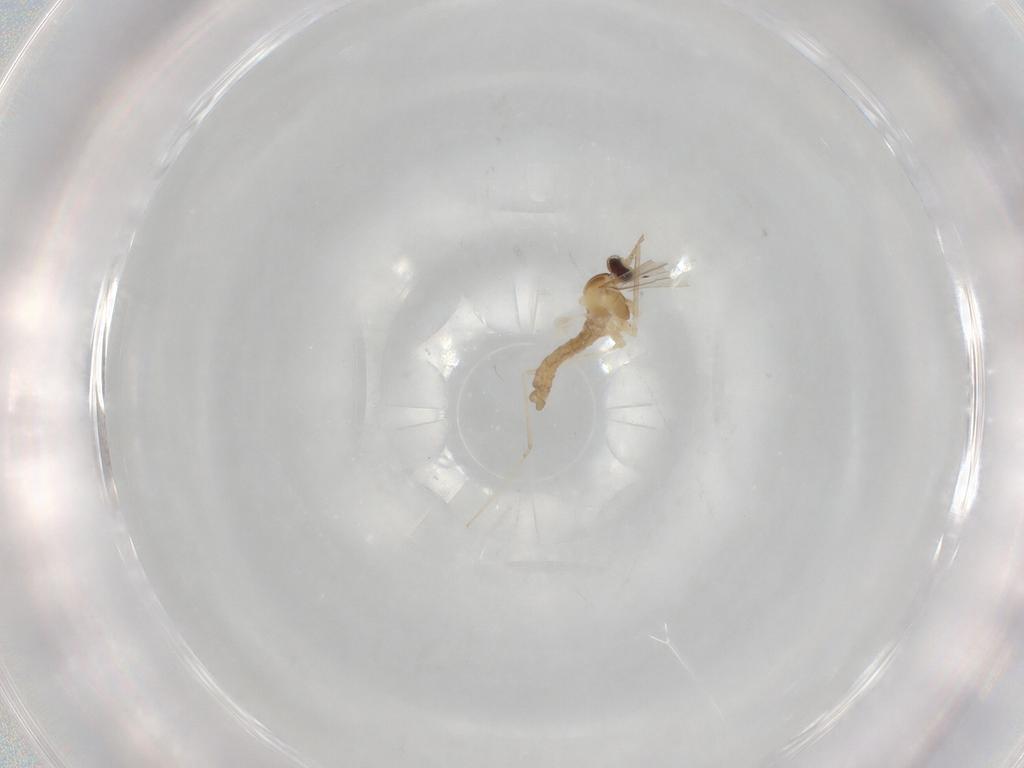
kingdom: Animalia
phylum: Arthropoda
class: Insecta
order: Diptera
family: Cecidomyiidae
